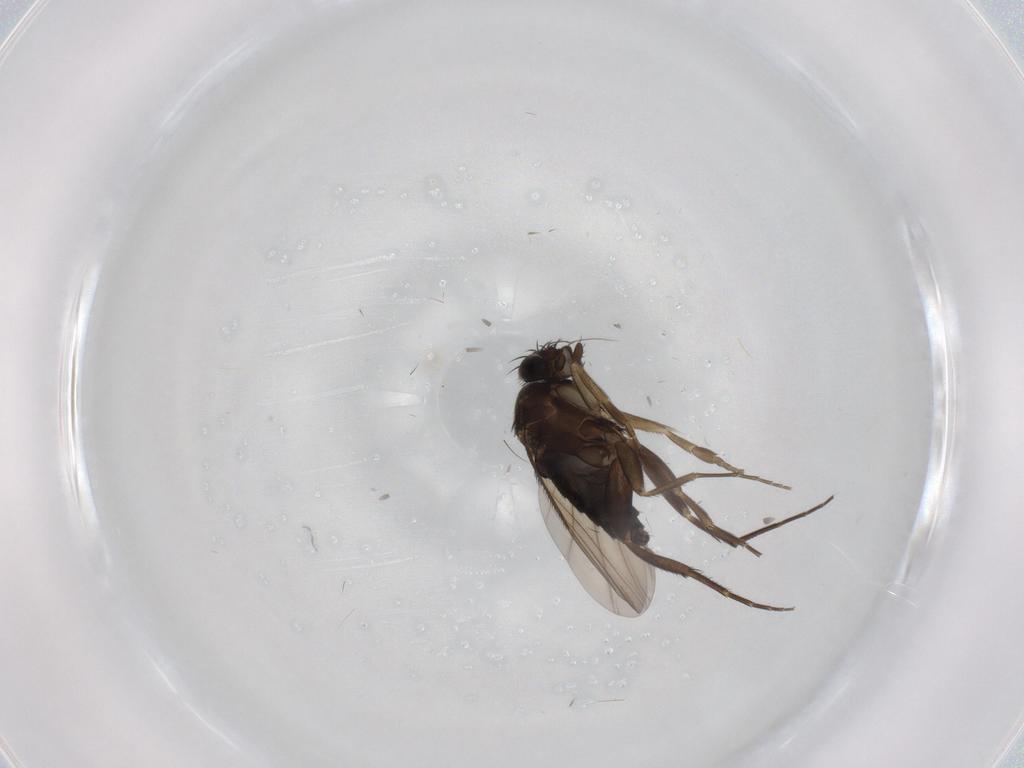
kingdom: Animalia
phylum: Arthropoda
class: Insecta
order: Diptera
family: Phoridae
